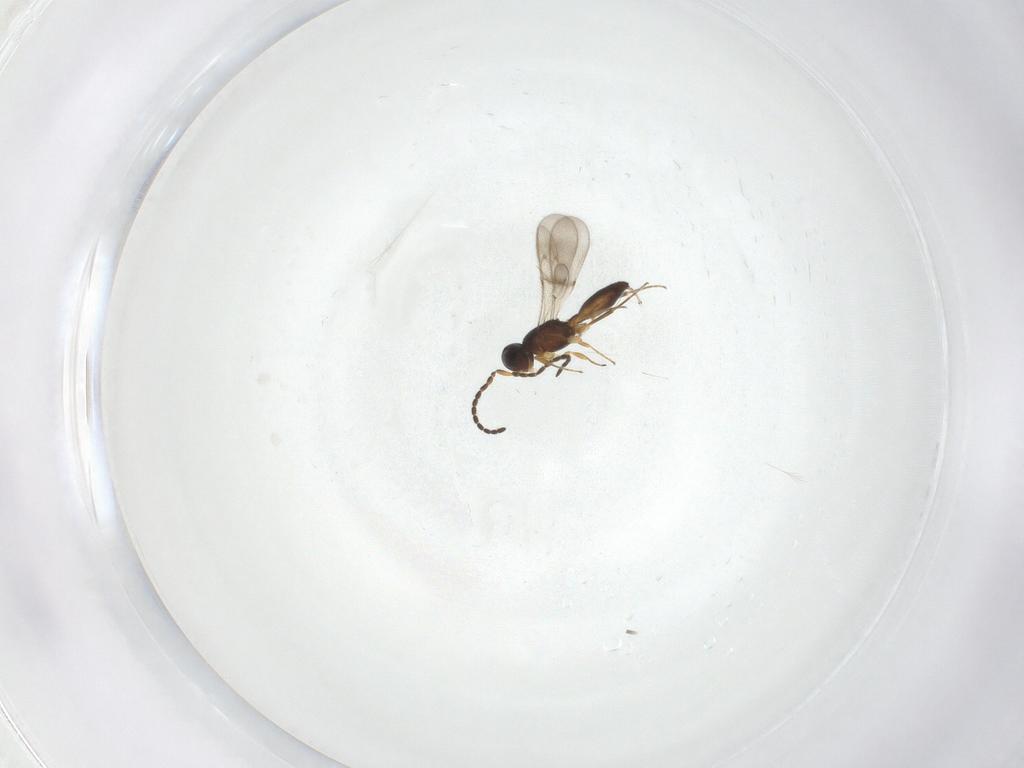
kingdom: Animalia
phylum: Arthropoda
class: Insecta
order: Hymenoptera
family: Scelionidae
